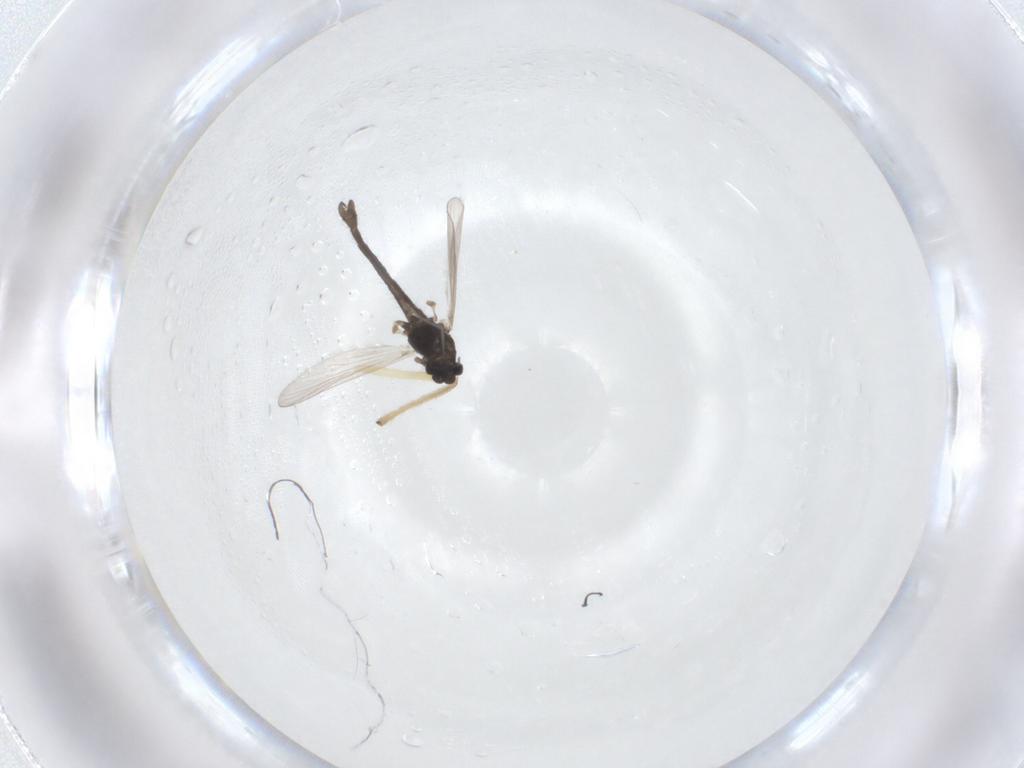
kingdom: Animalia
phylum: Arthropoda
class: Insecta
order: Diptera
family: Chironomidae
